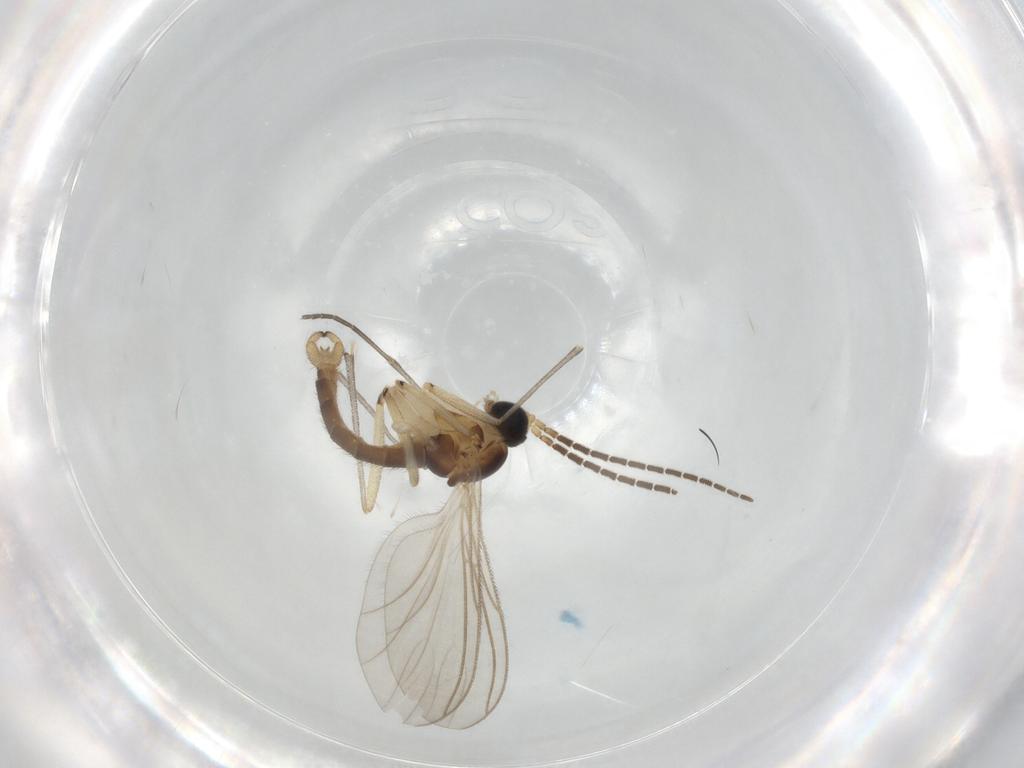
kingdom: Animalia
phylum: Arthropoda
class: Insecta
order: Diptera
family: Sciaridae
